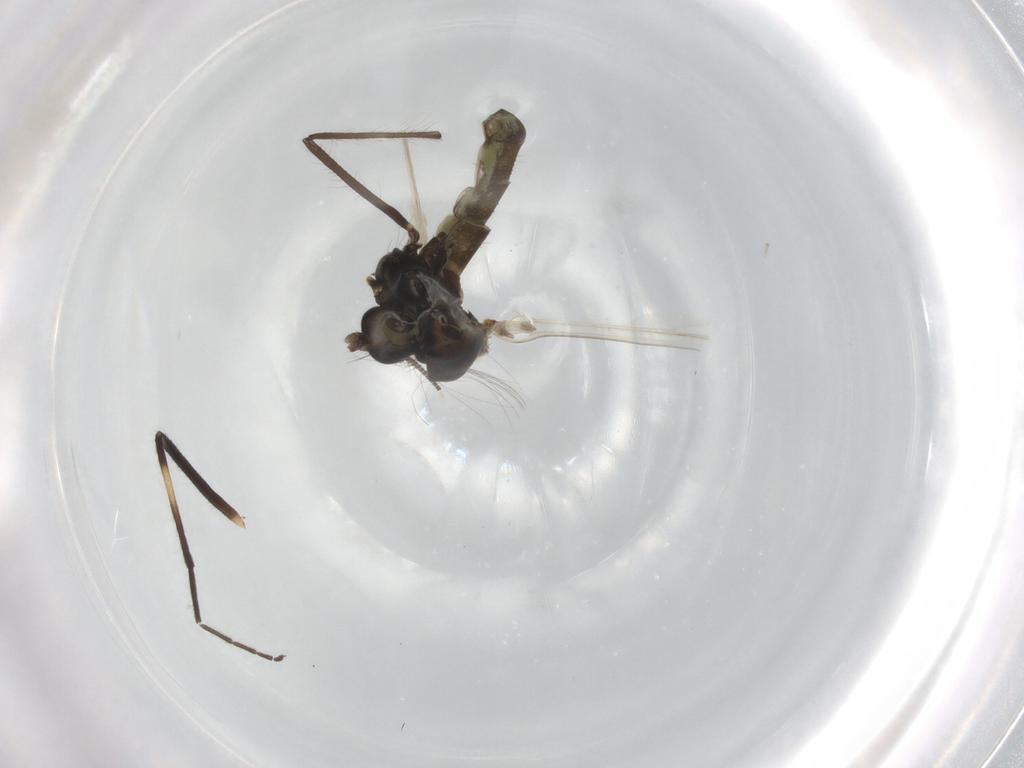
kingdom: Animalia
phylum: Arthropoda
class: Insecta
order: Diptera
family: Chironomidae
